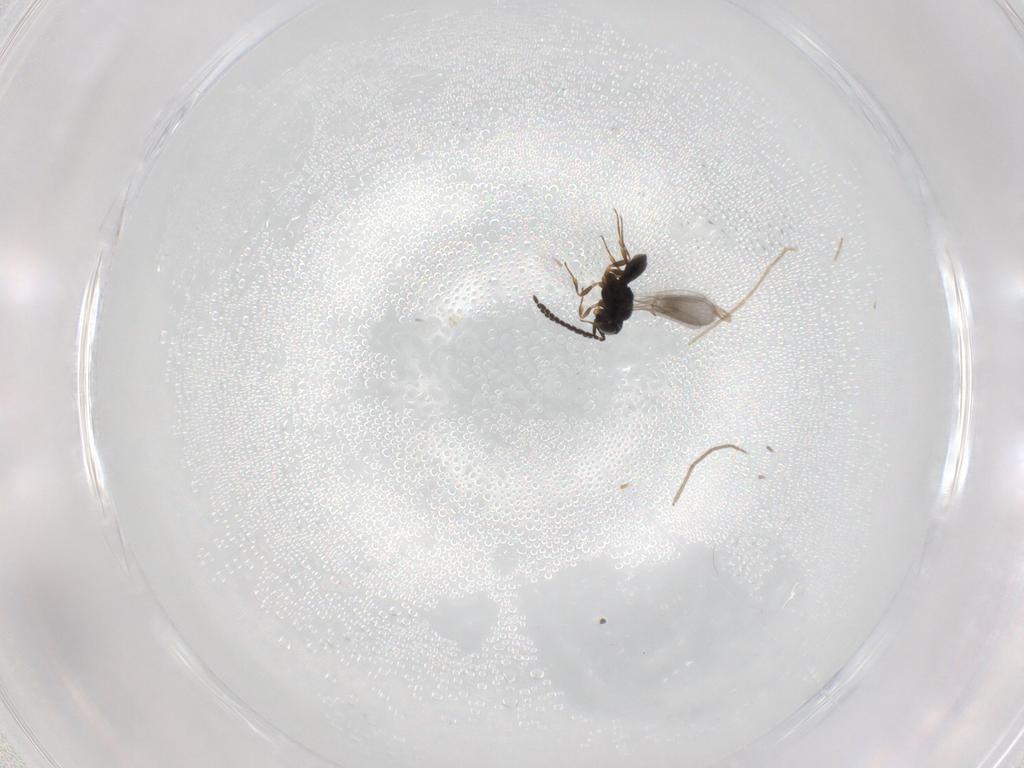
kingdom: Animalia
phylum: Arthropoda
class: Insecta
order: Hymenoptera
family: Scelionidae
